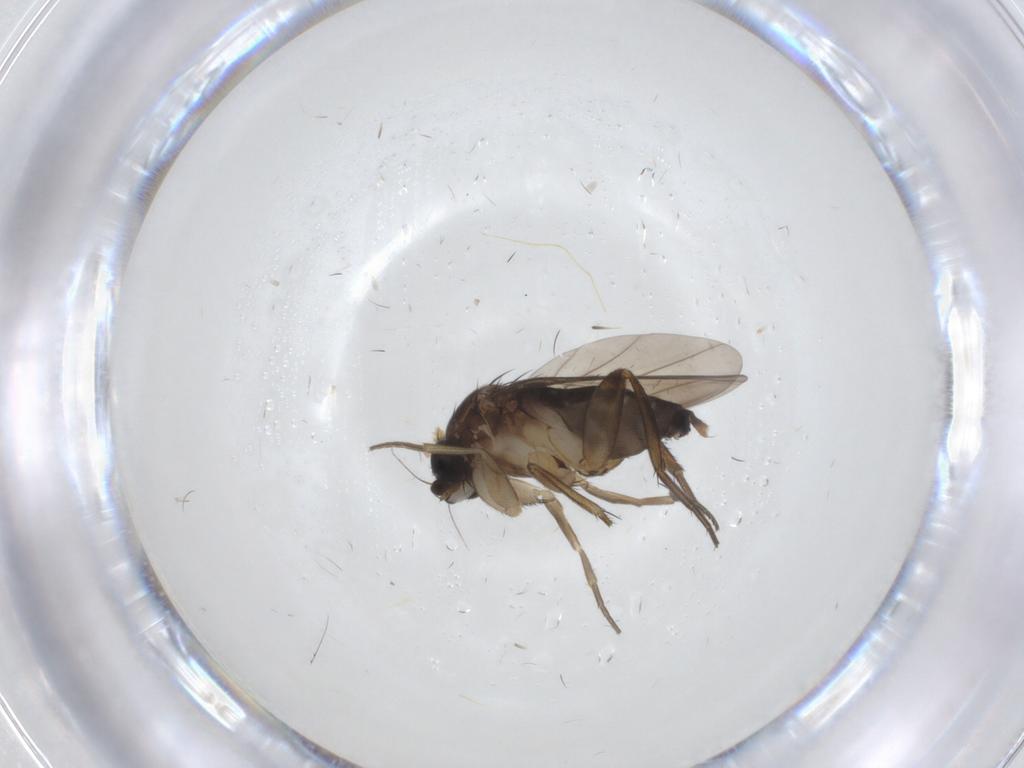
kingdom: Animalia
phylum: Arthropoda
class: Insecta
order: Diptera
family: Phoridae
